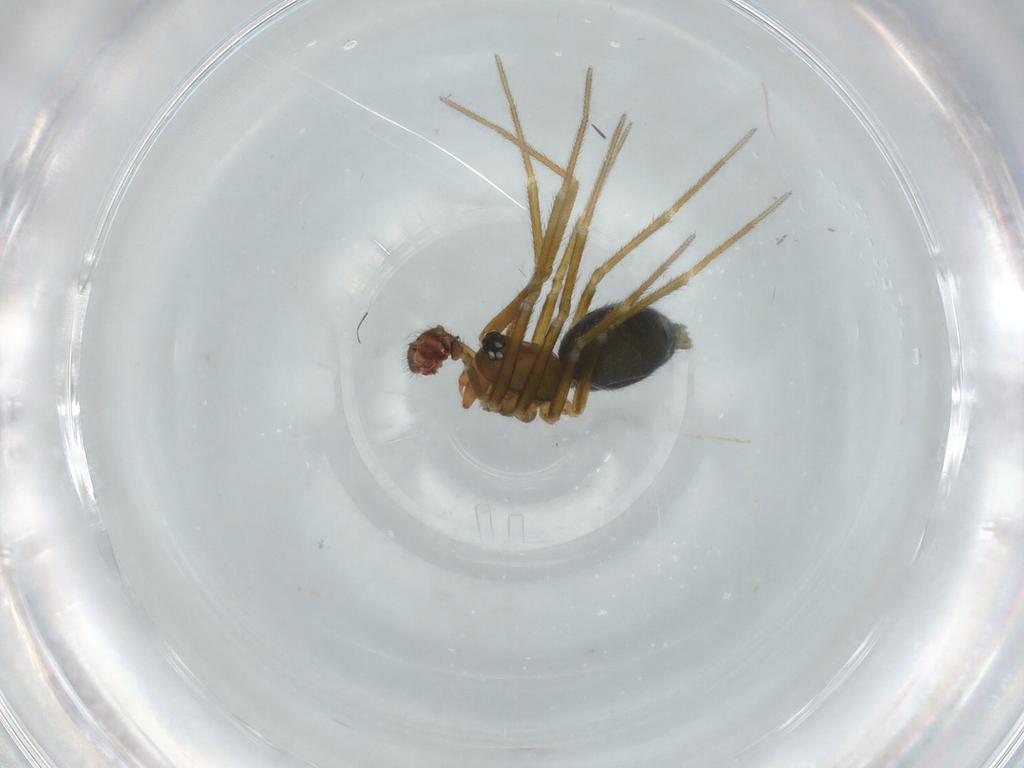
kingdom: Animalia
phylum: Arthropoda
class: Arachnida
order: Araneae
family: Linyphiidae
